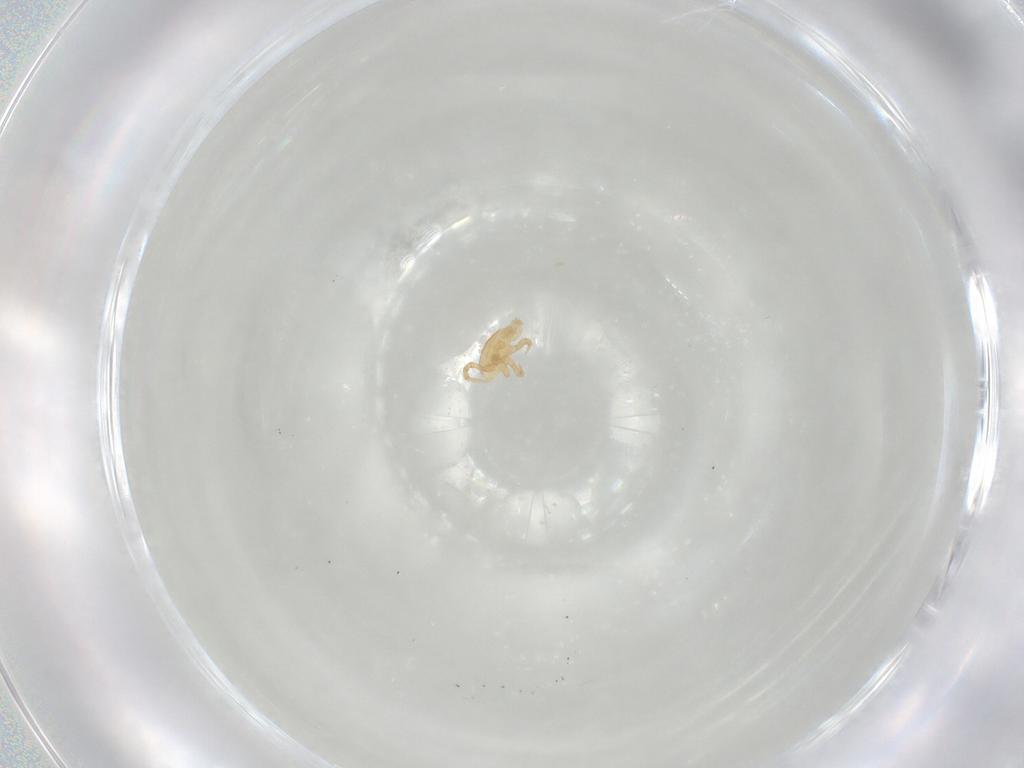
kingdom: Animalia
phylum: Arthropoda
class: Arachnida
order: Mesostigmata
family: Parasitidae
